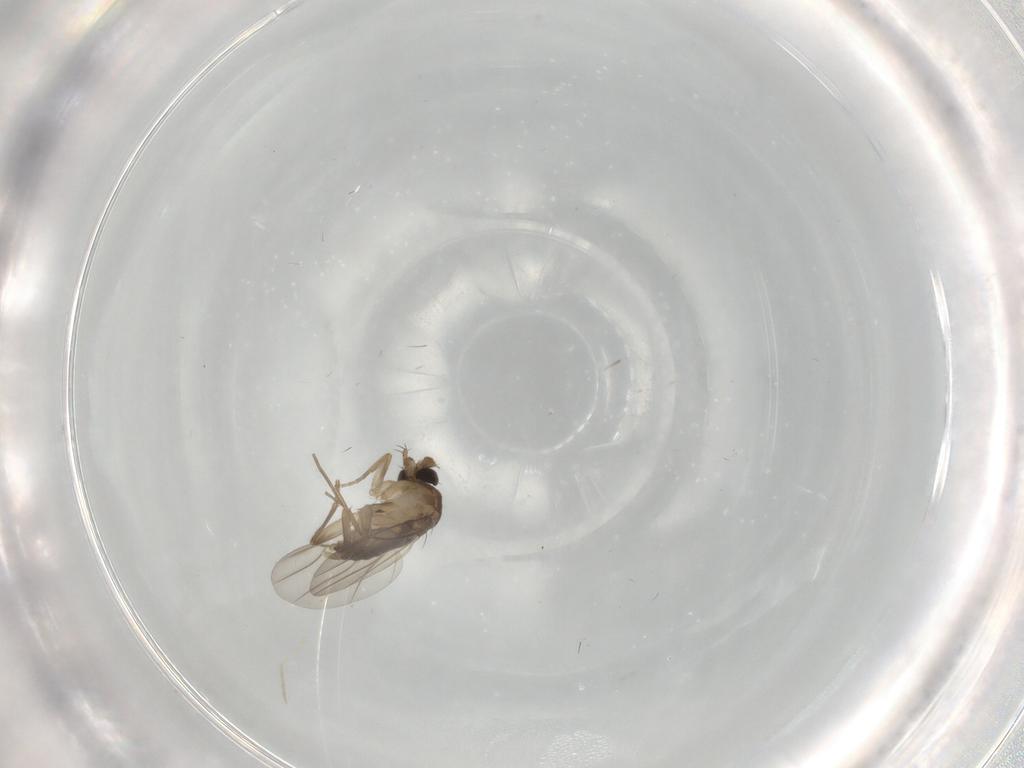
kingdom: Animalia
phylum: Arthropoda
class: Insecta
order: Diptera
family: Cecidomyiidae
